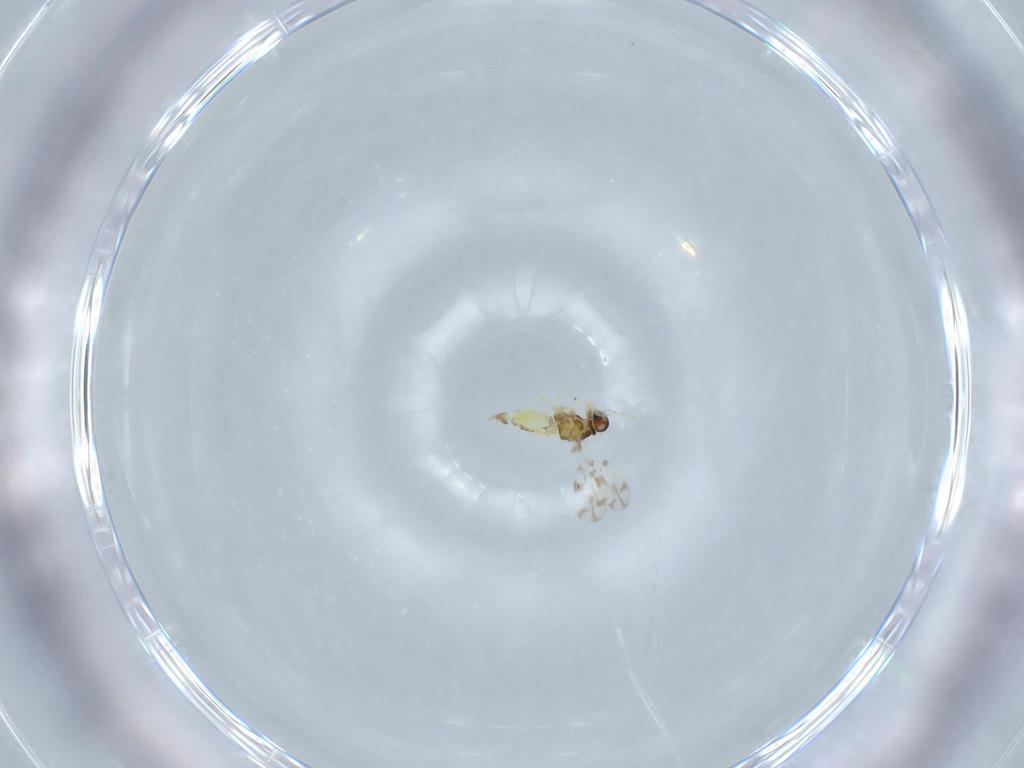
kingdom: Animalia
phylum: Arthropoda
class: Insecta
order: Hemiptera
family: Aleyrodidae
